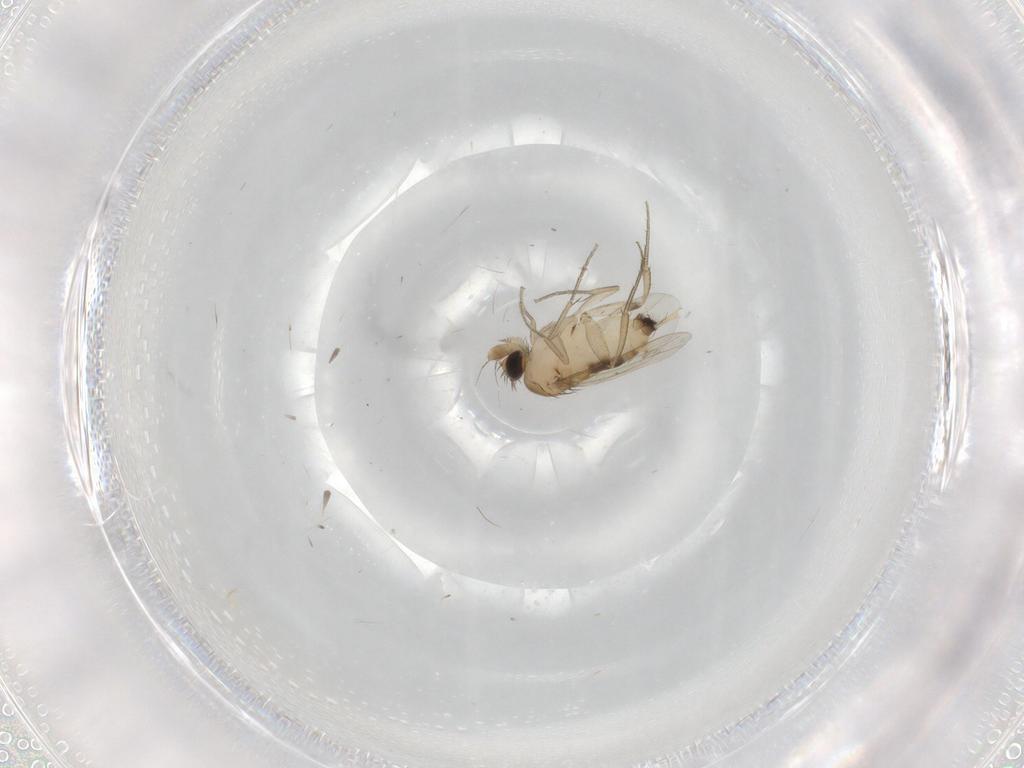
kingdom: Animalia
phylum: Arthropoda
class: Insecta
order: Diptera
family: Phoridae
